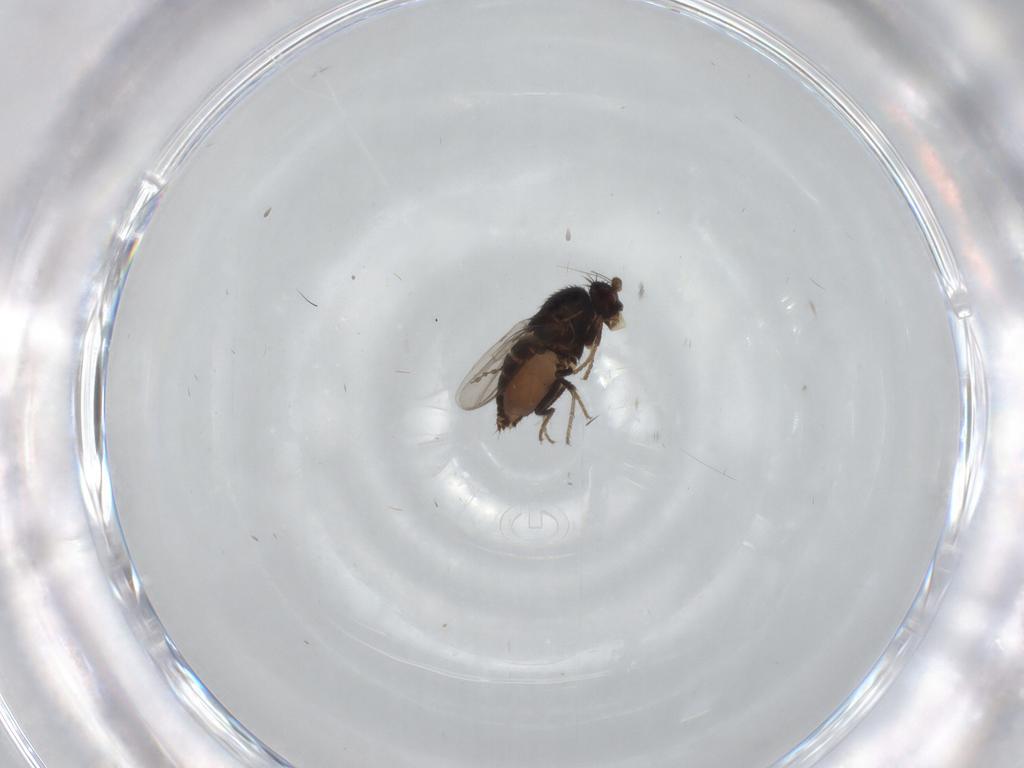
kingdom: Animalia
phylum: Arthropoda
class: Insecta
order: Diptera
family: Sphaeroceridae
